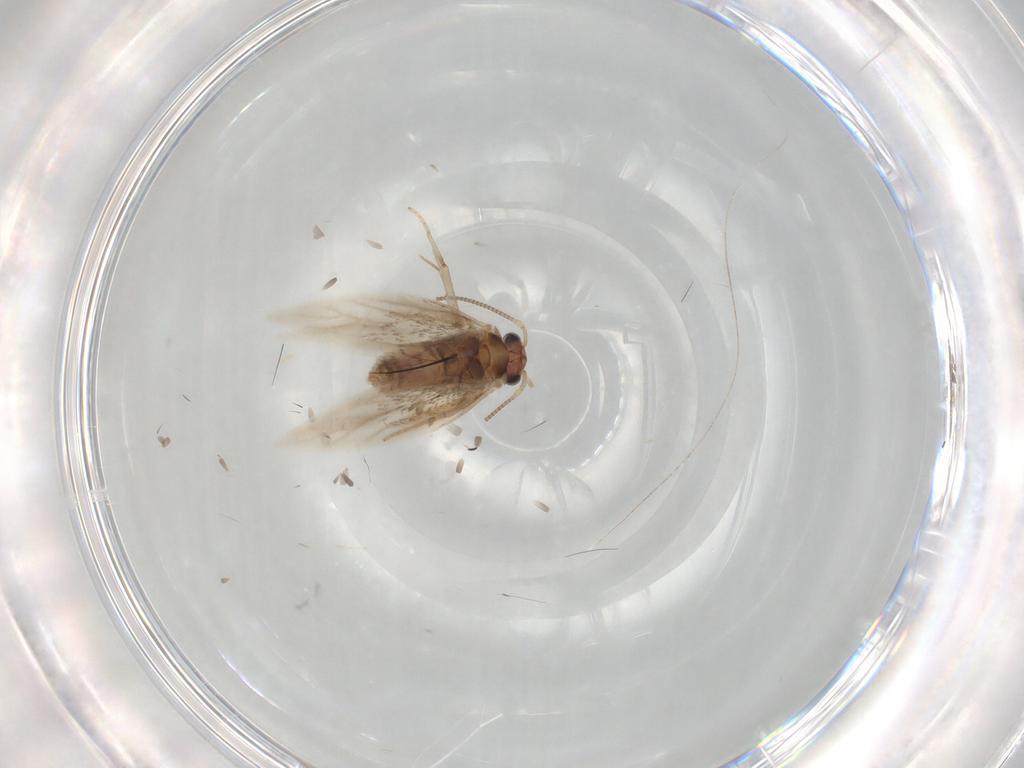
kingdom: Animalia
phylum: Arthropoda
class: Insecta
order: Lepidoptera
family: Nepticulidae
